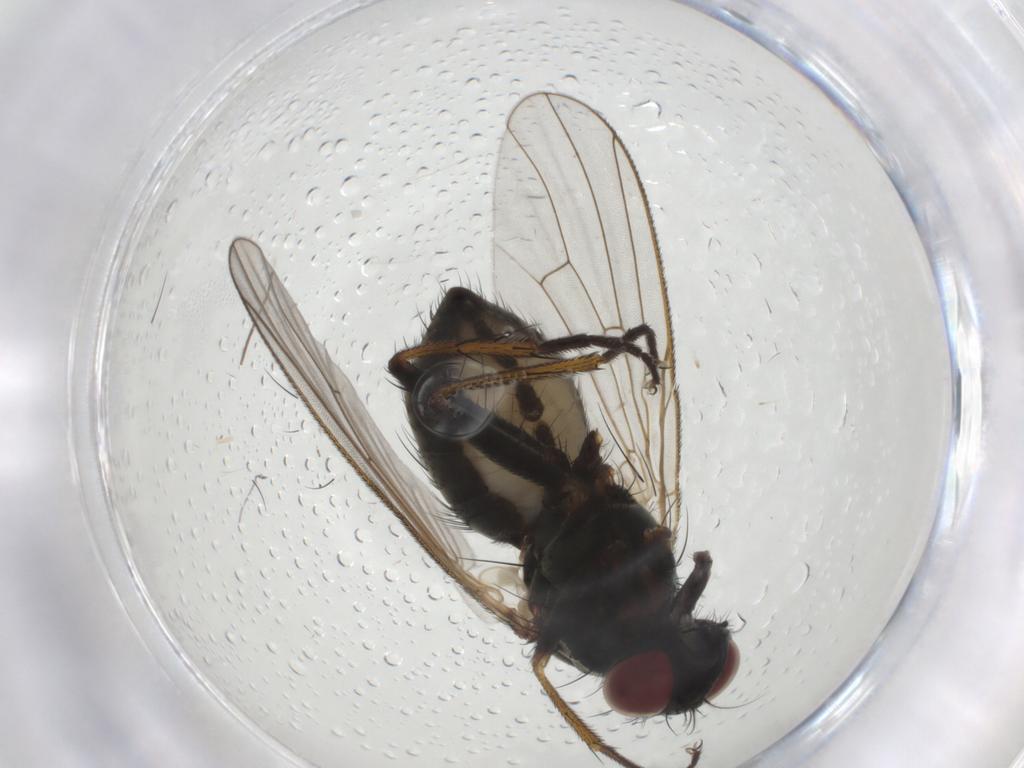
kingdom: Animalia
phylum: Arthropoda
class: Insecta
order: Diptera
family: Muscidae
